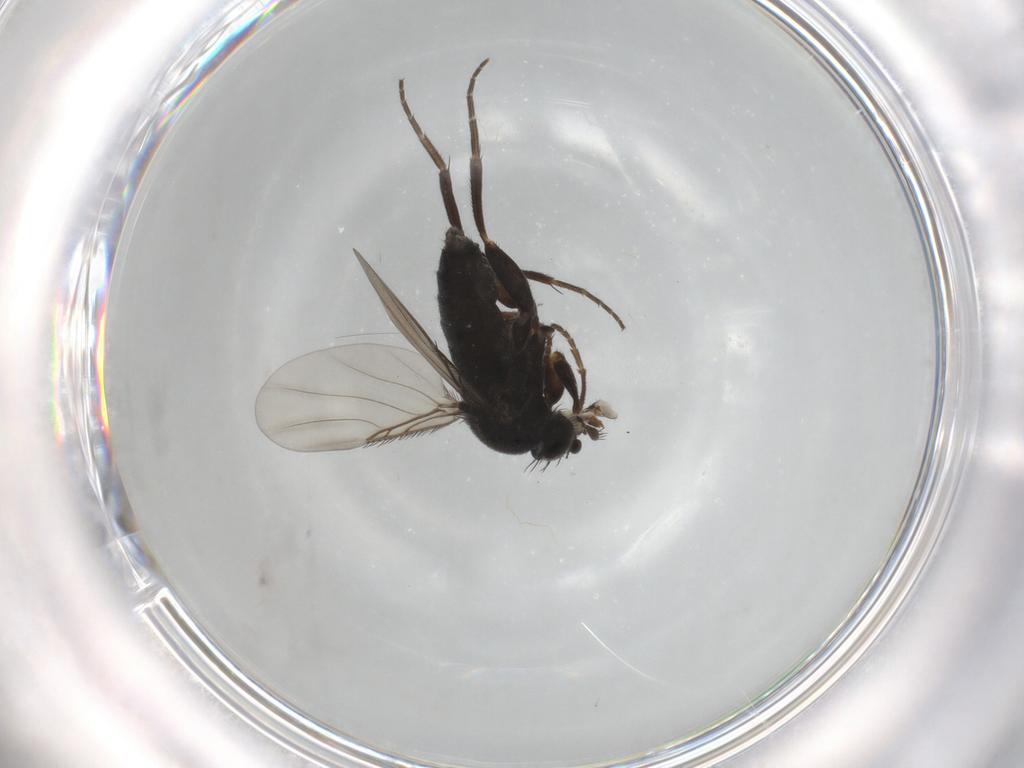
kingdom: Animalia
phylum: Arthropoda
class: Insecta
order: Diptera
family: Phoridae
